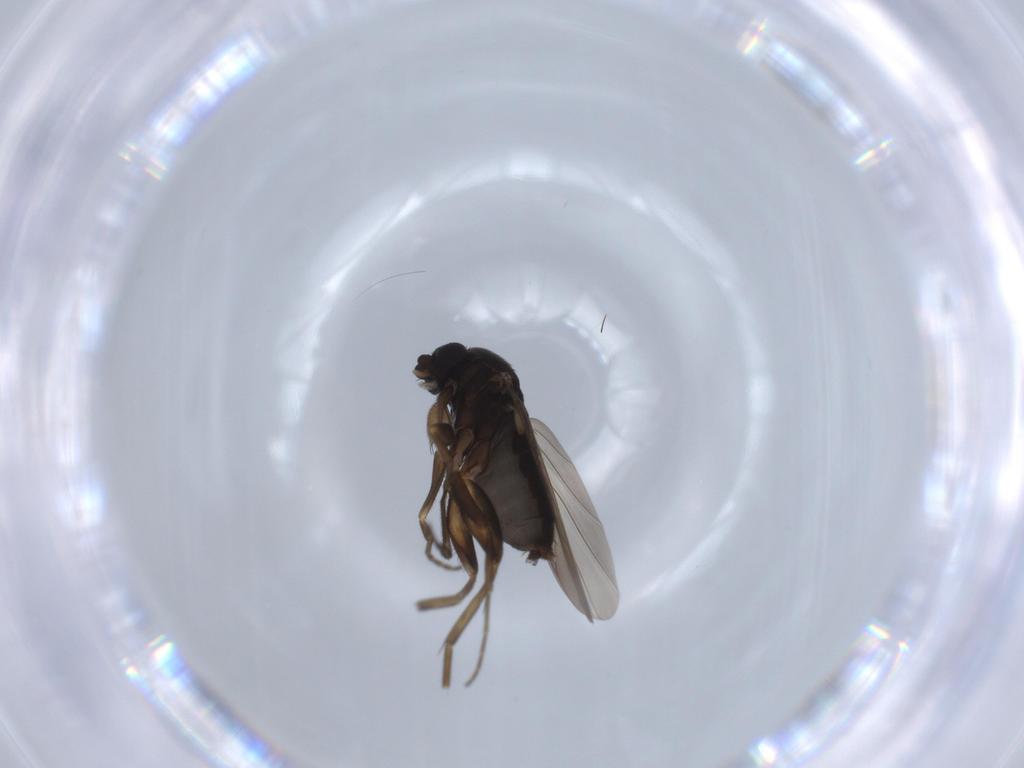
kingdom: Animalia
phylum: Arthropoda
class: Insecta
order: Diptera
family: Phoridae
